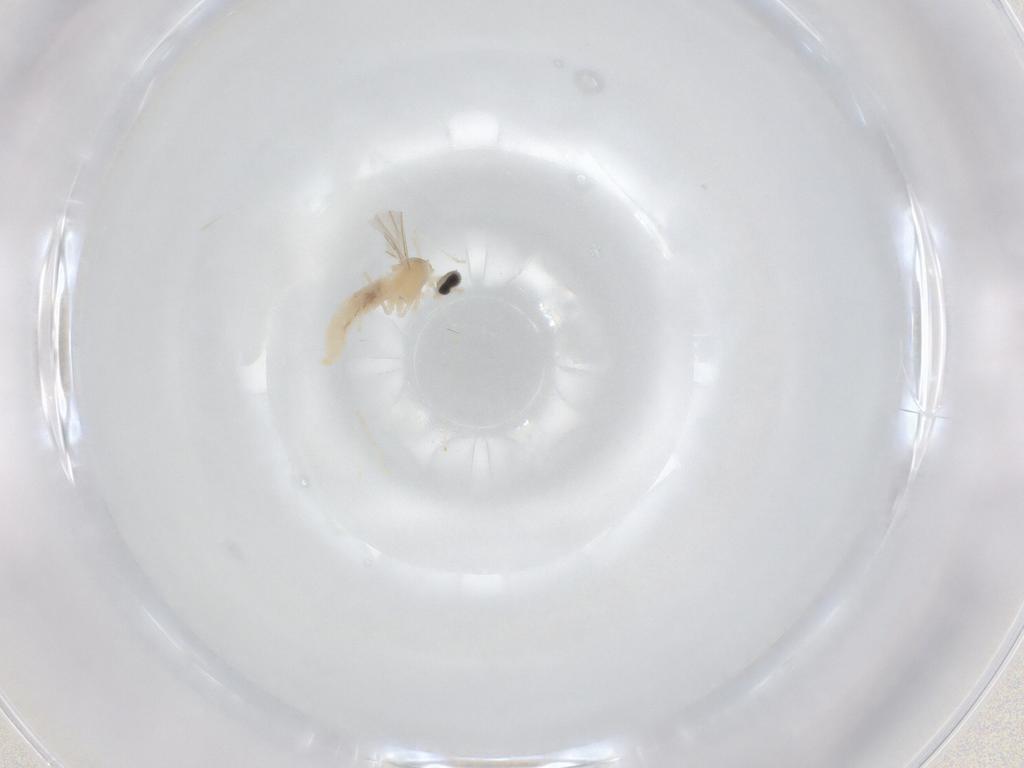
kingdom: Animalia
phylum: Arthropoda
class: Insecta
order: Diptera
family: Cecidomyiidae
